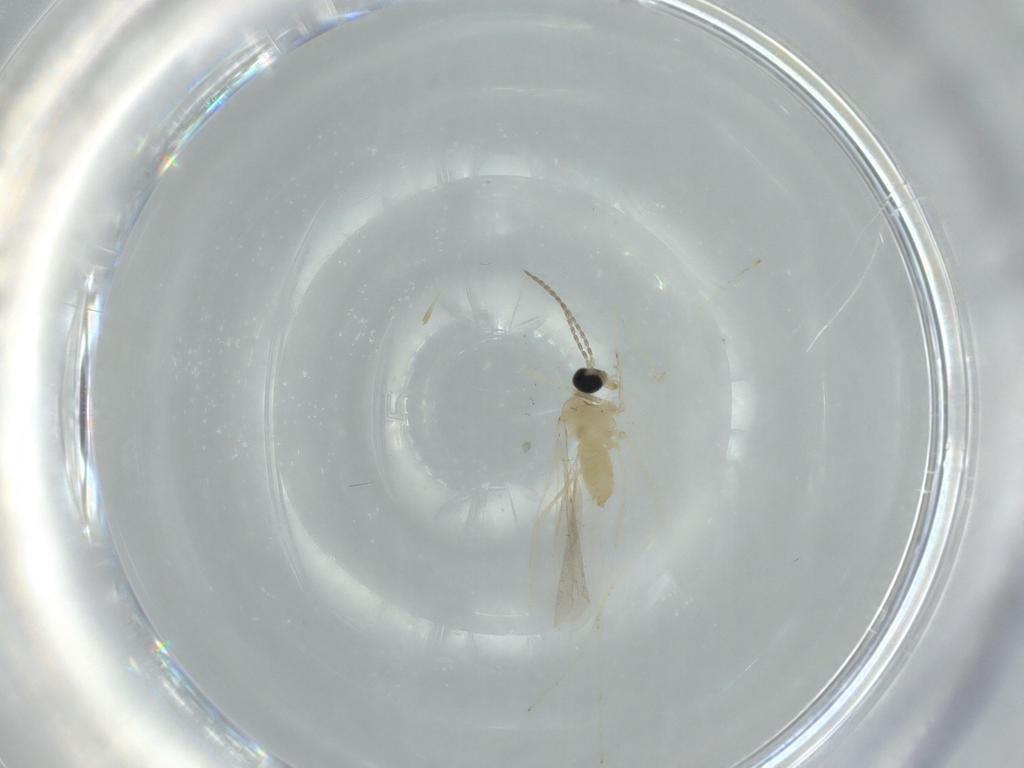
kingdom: Animalia
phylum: Arthropoda
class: Insecta
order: Diptera
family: Cecidomyiidae
